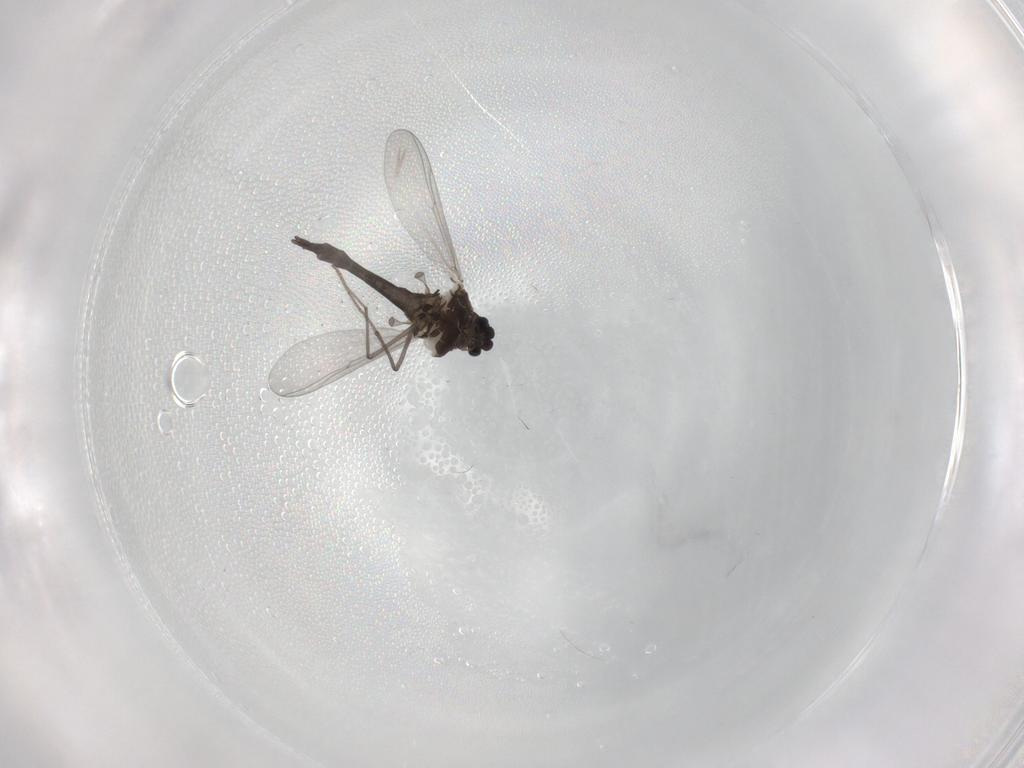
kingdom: Animalia
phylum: Arthropoda
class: Insecta
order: Diptera
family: Chironomidae
